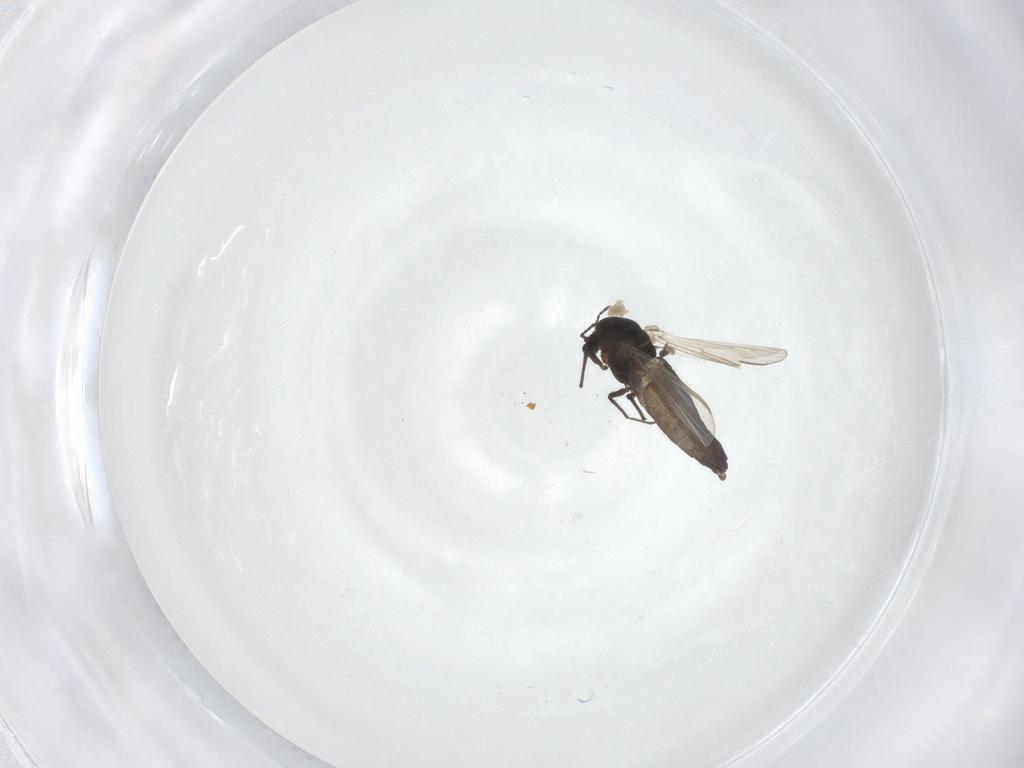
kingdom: Animalia
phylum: Arthropoda
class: Insecta
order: Diptera
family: Chironomidae
